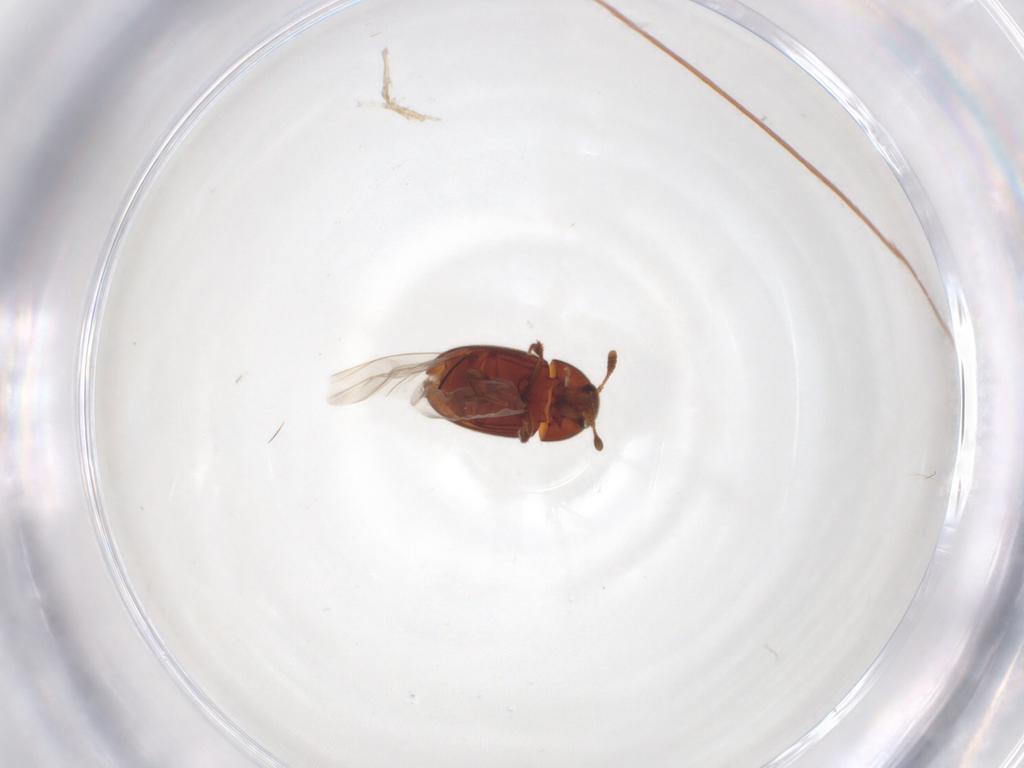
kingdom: Animalia
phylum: Arthropoda
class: Insecta
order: Coleoptera
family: Curculionidae
